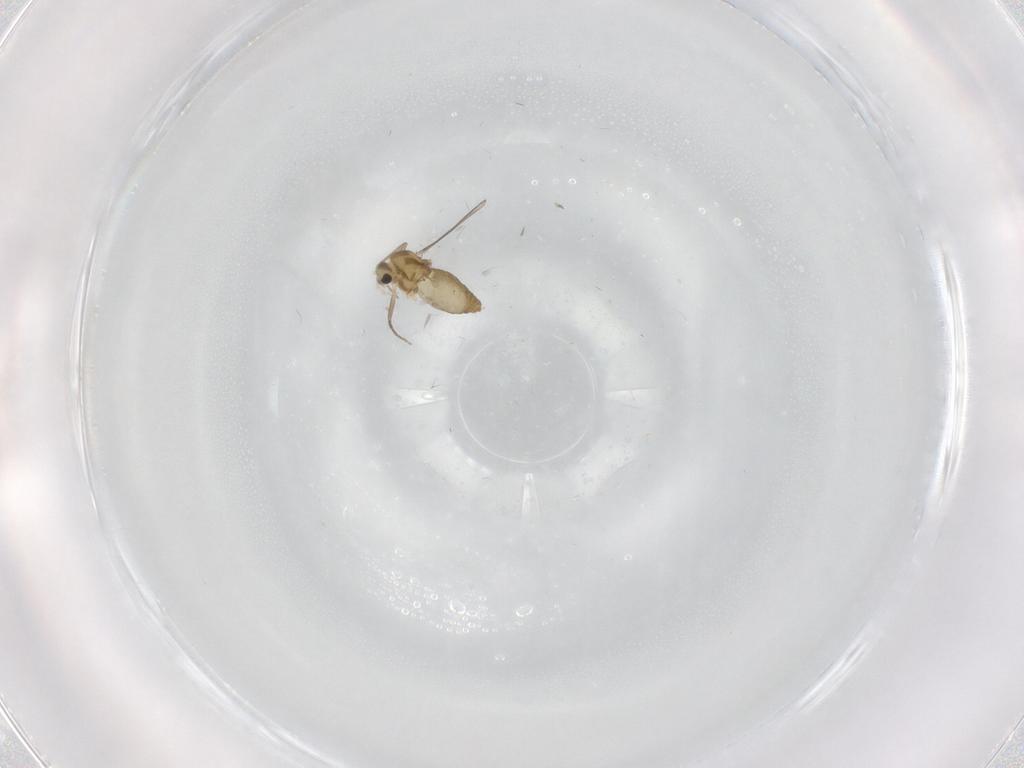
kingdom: Animalia
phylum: Arthropoda
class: Insecta
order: Diptera
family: Chironomidae
